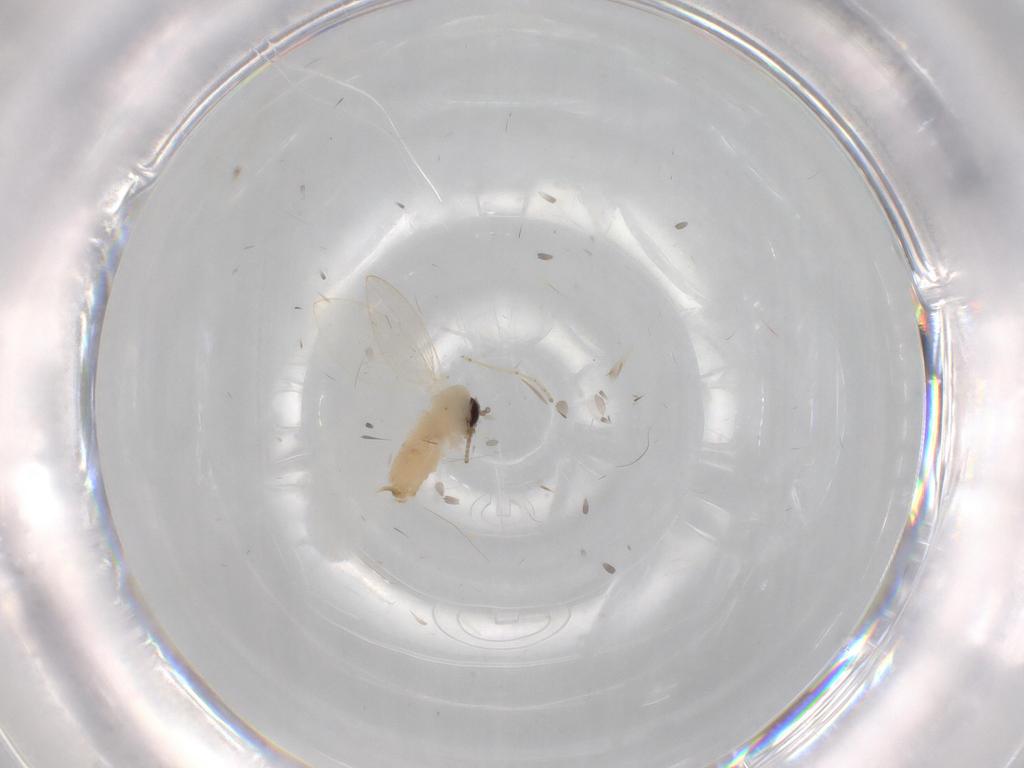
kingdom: Animalia
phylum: Arthropoda
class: Insecta
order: Diptera
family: Psychodidae
